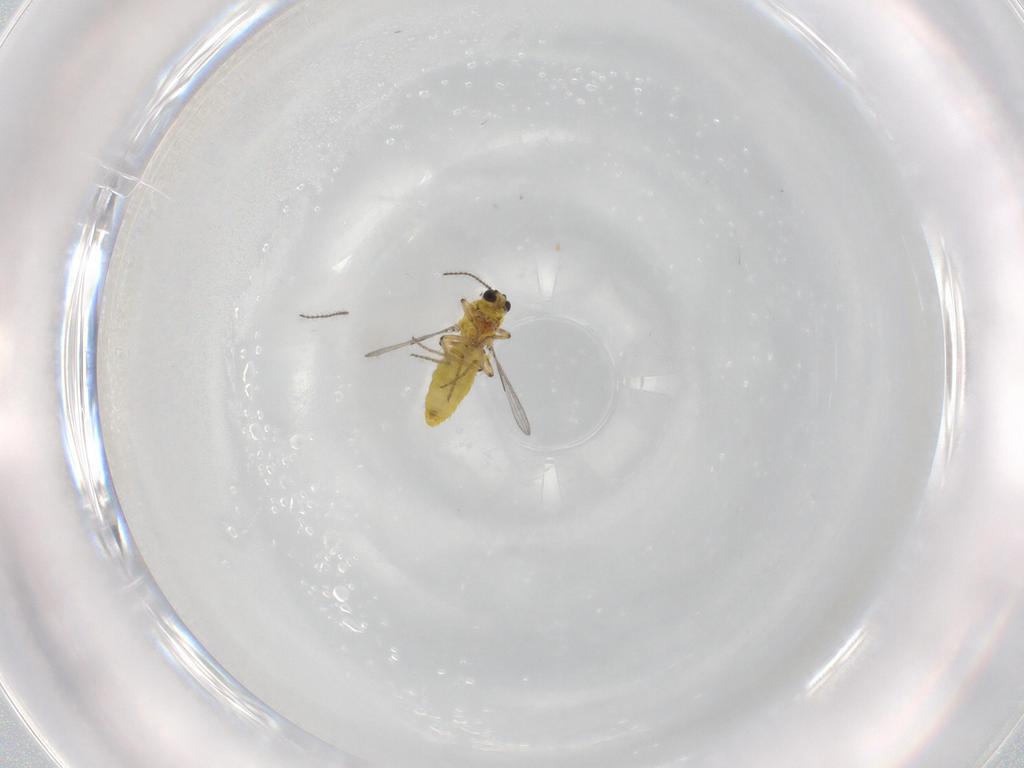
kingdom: Animalia
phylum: Arthropoda
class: Insecta
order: Diptera
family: Ceratopogonidae
